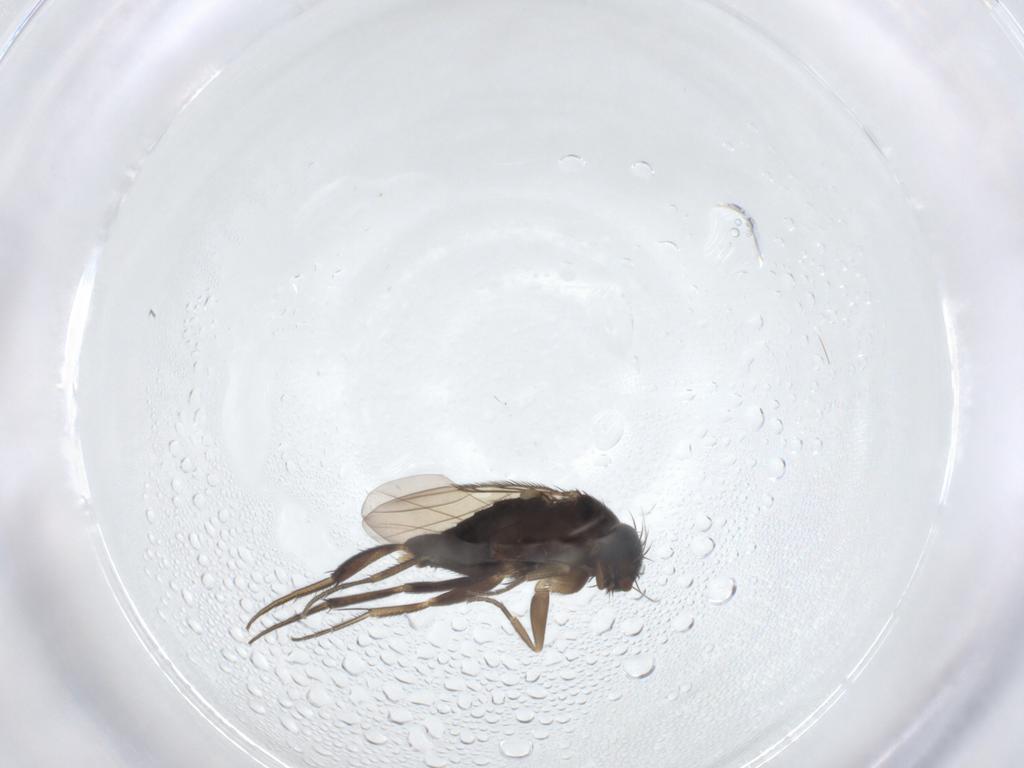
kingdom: Animalia
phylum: Arthropoda
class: Insecta
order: Diptera
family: Phoridae
